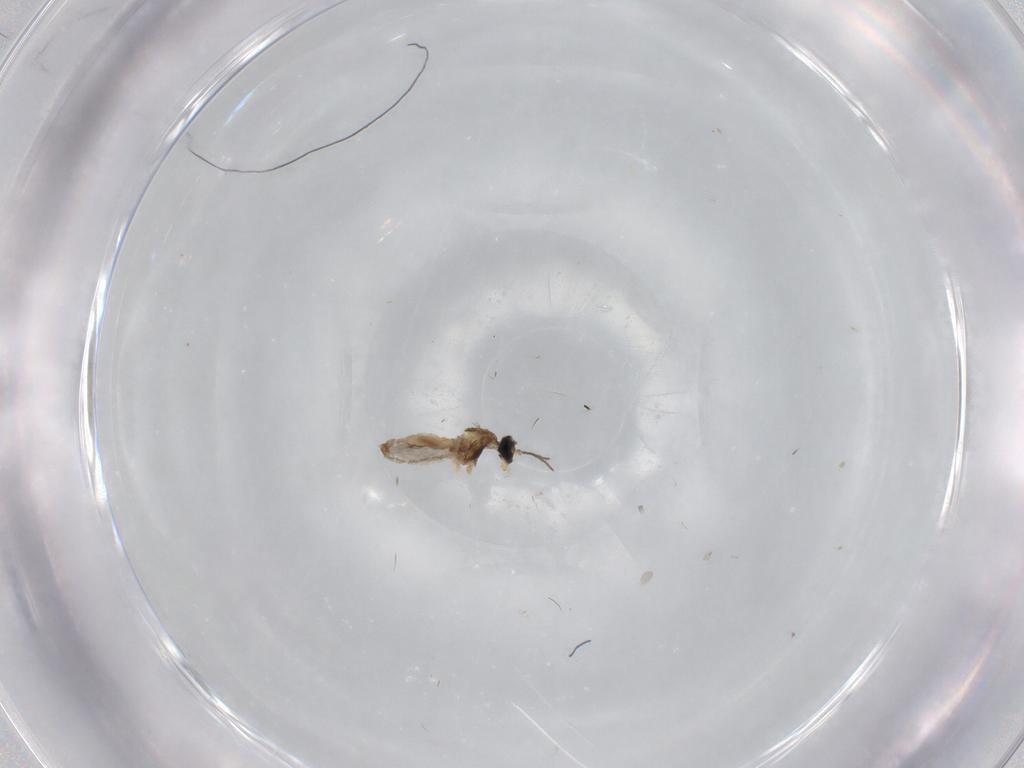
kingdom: Animalia
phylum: Arthropoda
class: Insecta
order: Diptera
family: Cecidomyiidae
